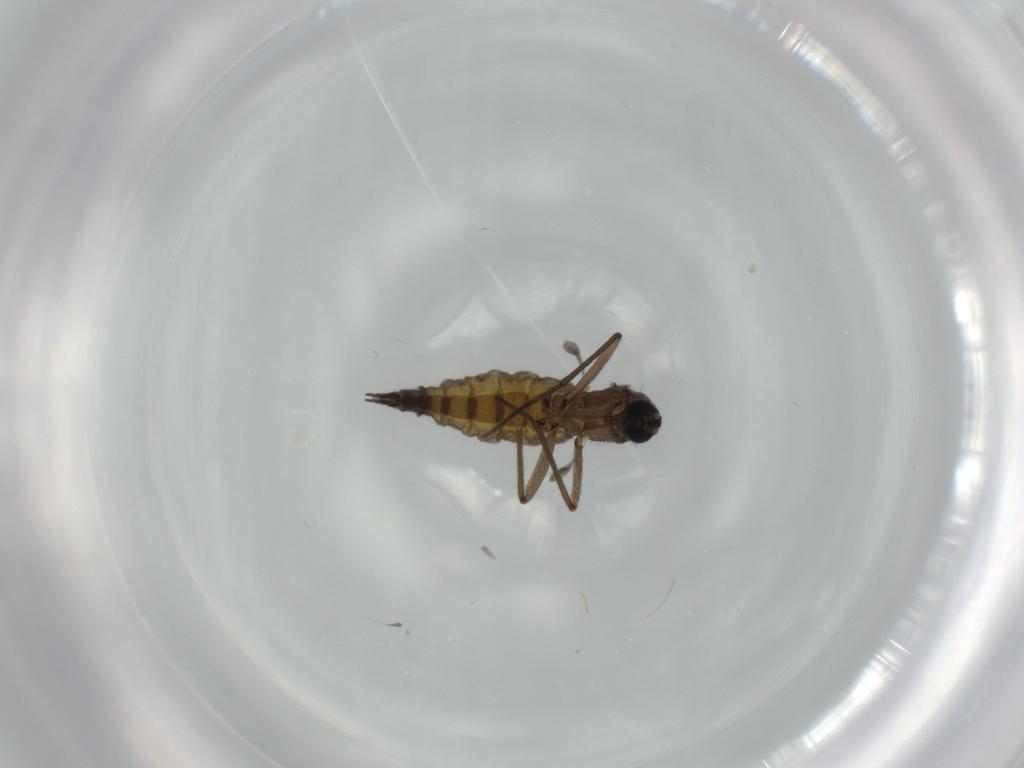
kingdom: Animalia
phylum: Arthropoda
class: Insecta
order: Diptera
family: Sciaridae
